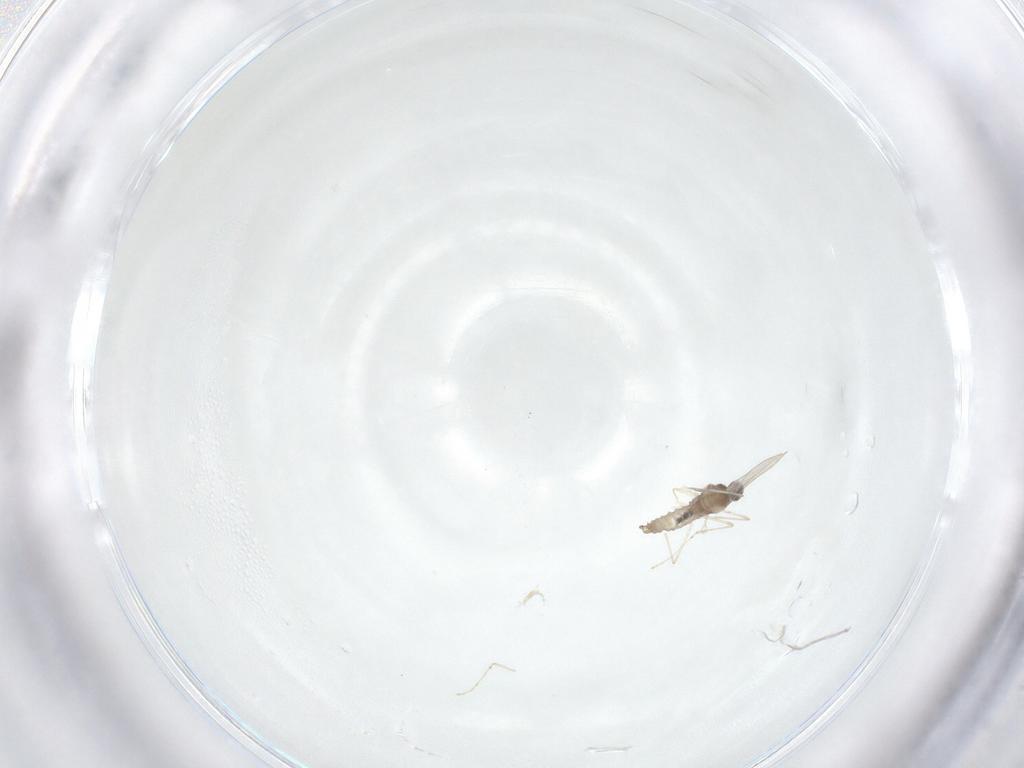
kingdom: Animalia
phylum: Arthropoda
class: Insecta
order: Diptera
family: Cecidomyiidae
